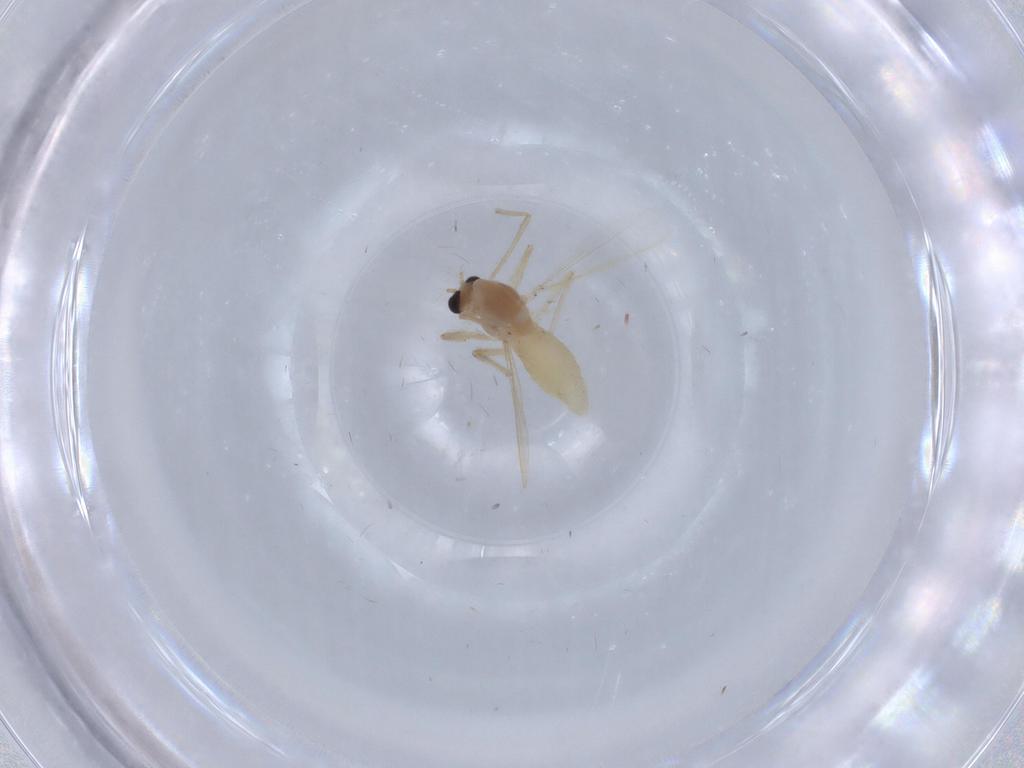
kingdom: Animalia
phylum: Arthropoda
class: Insecta
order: Diptera
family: Chironomidae
